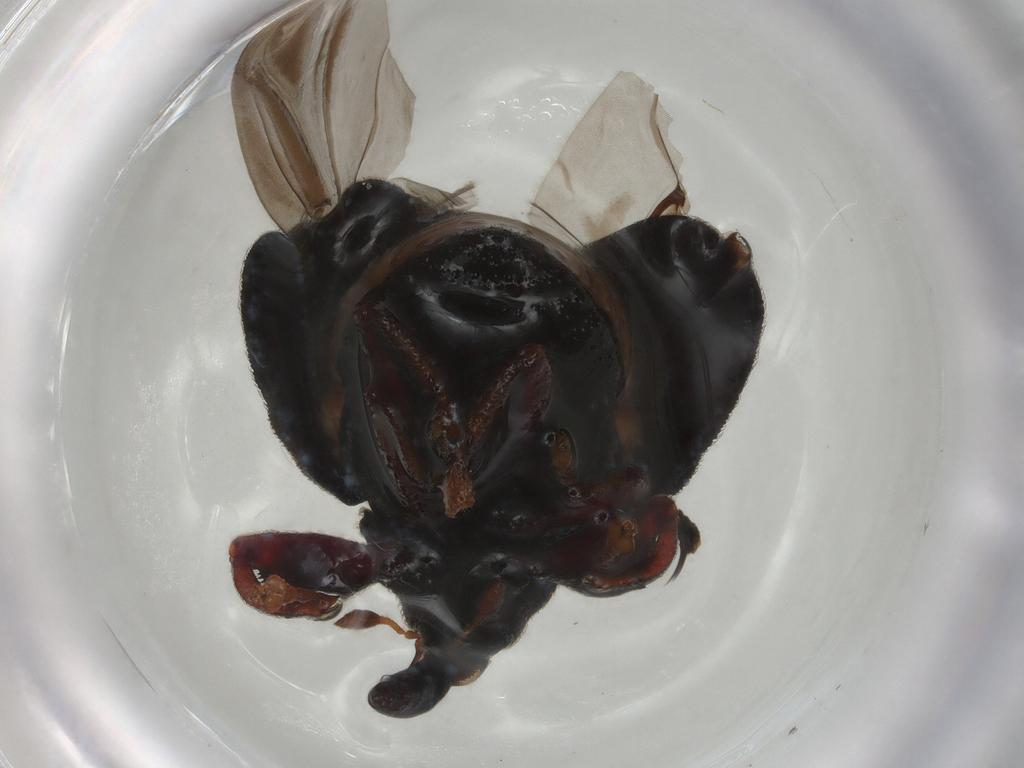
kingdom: Animalia
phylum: Arthropoda
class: Insecta
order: Coleoptera
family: Curculionidae
